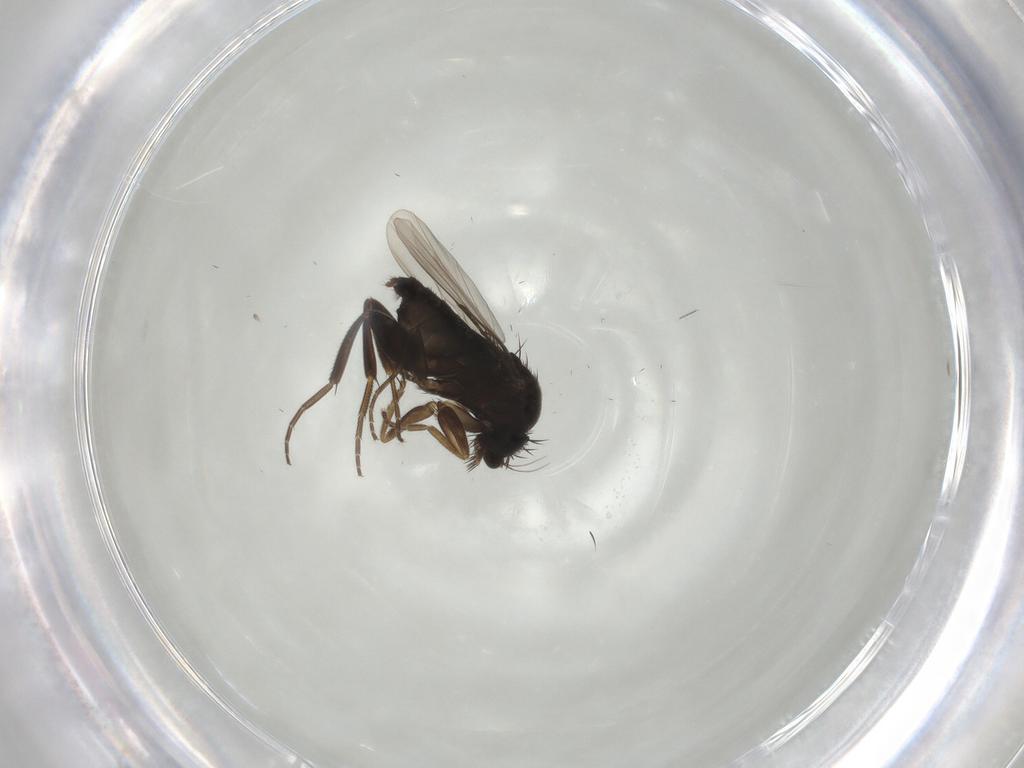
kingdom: Animalia
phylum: Arthropoda
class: Insecta
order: Diptera
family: Phoridae
